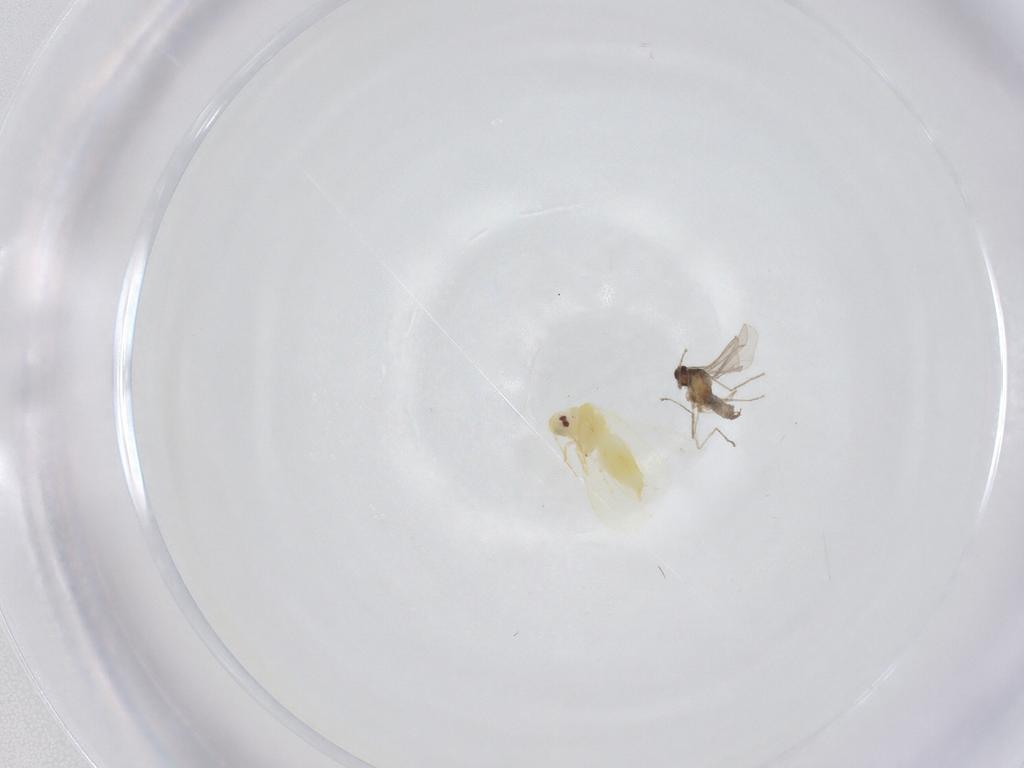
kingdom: Animalia
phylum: Arthropoda
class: Insecta
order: Hemiptera
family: Aleyrodidae
